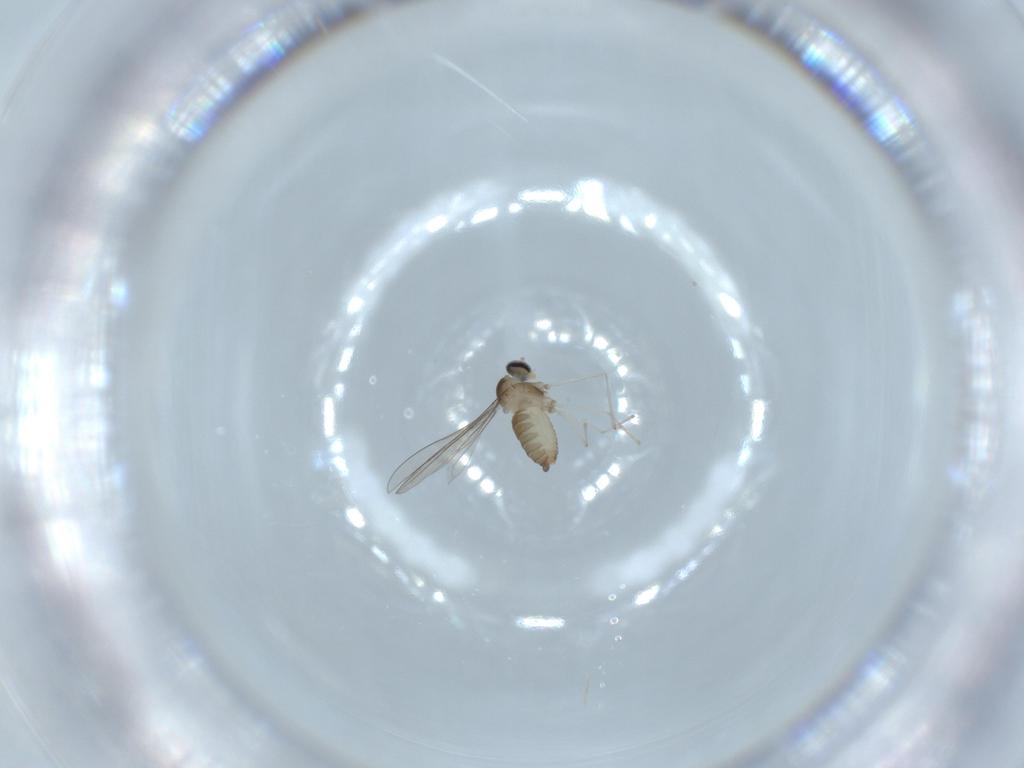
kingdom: Animalia
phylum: Arthropoda
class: Insecta
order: Diptera
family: Cecidomyiidae
